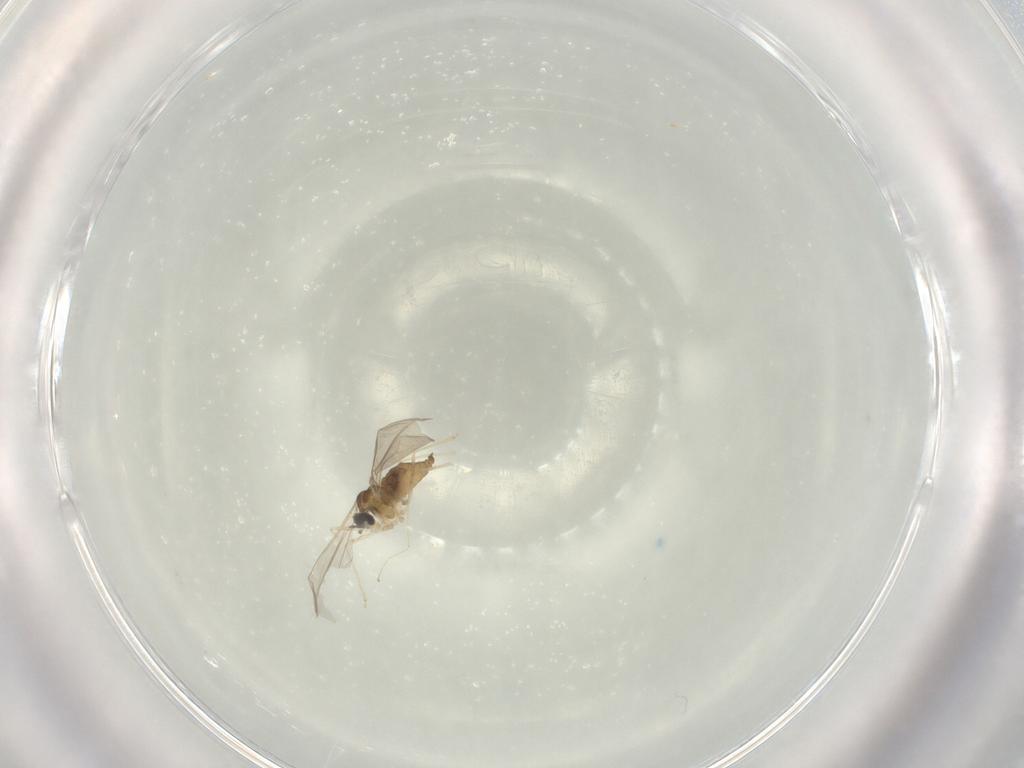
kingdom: Animalia
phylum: Arthropoda
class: Insecta
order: Diptera
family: Cecidomyiidae
